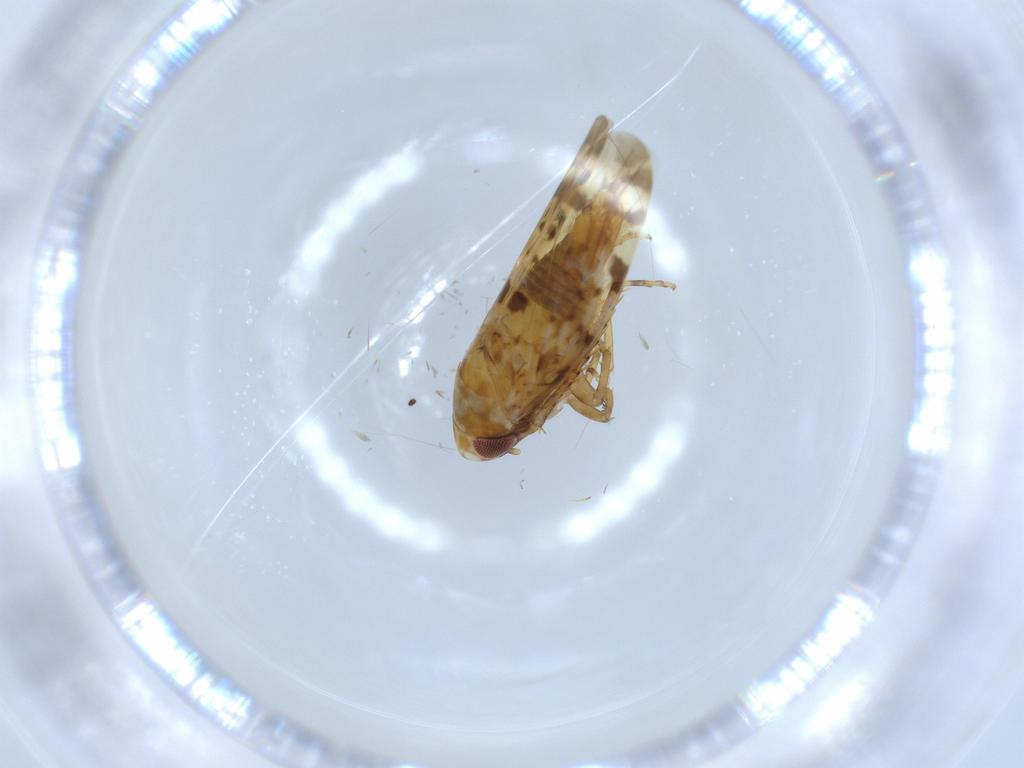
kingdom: Animalia
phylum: Arthropoda
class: Insecta
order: Hemiptera
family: Cicadellidae
